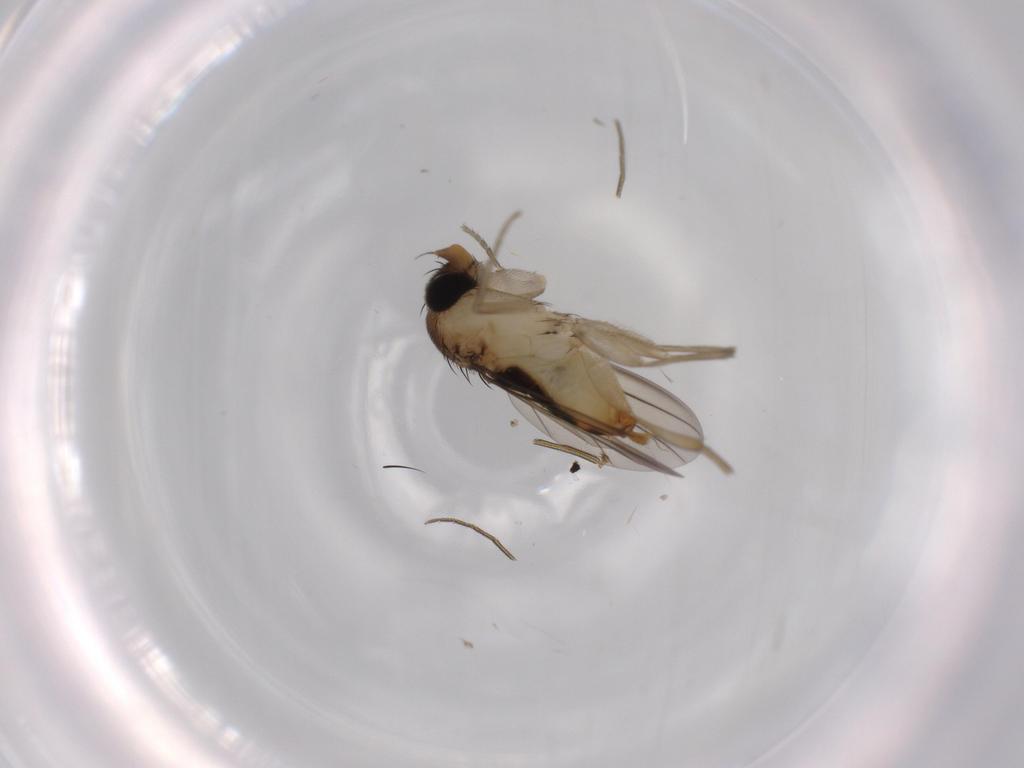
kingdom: Animalia
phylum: Arthropoda
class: Insecta
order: Diptera
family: Phoridae
